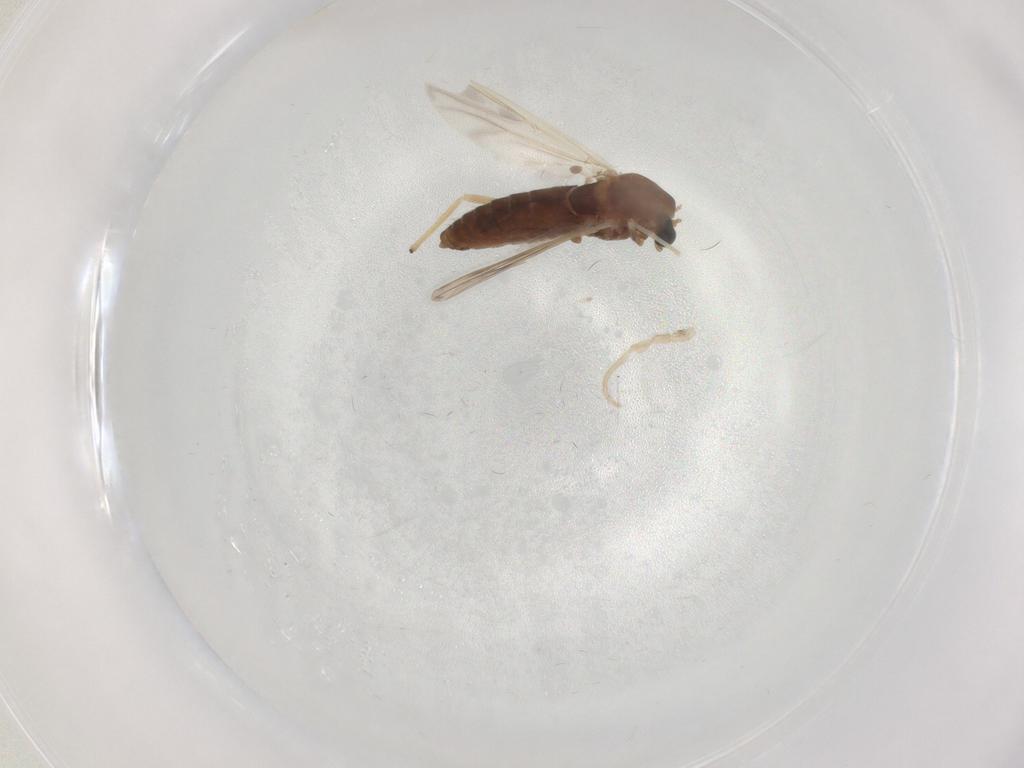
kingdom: Animalia
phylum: Arthropoda
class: Insecta
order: Diptera
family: Chironomidae
